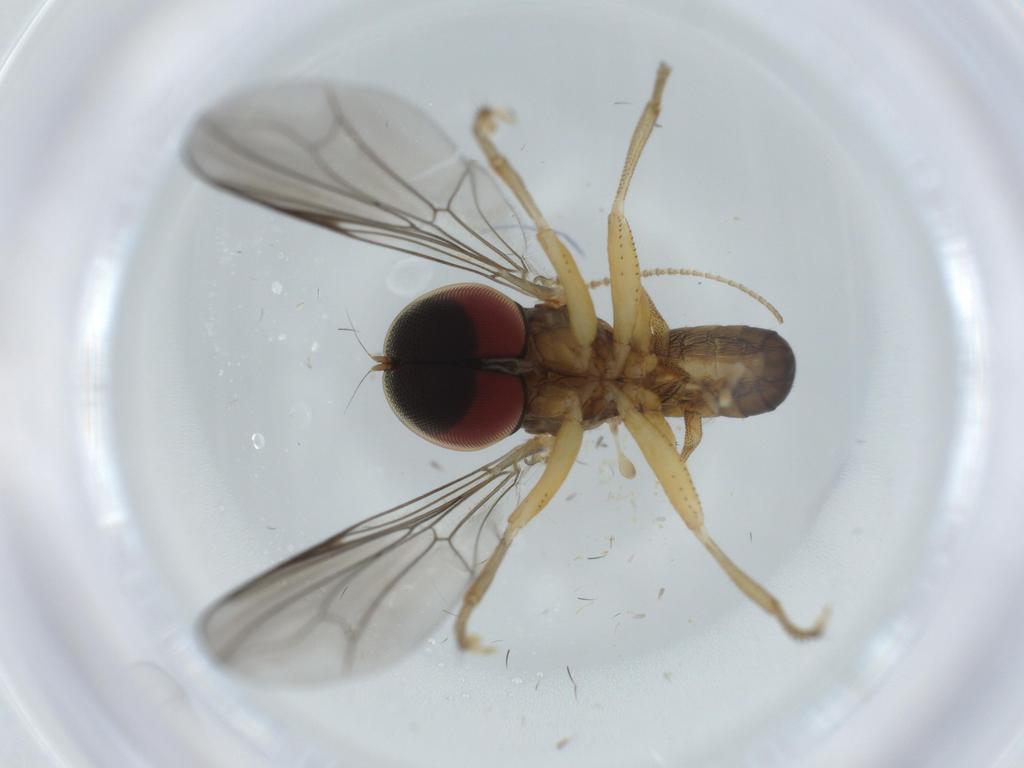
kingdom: Animalia
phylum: Arthropoda
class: Insecta
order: Diptera
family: Pipunculidae
